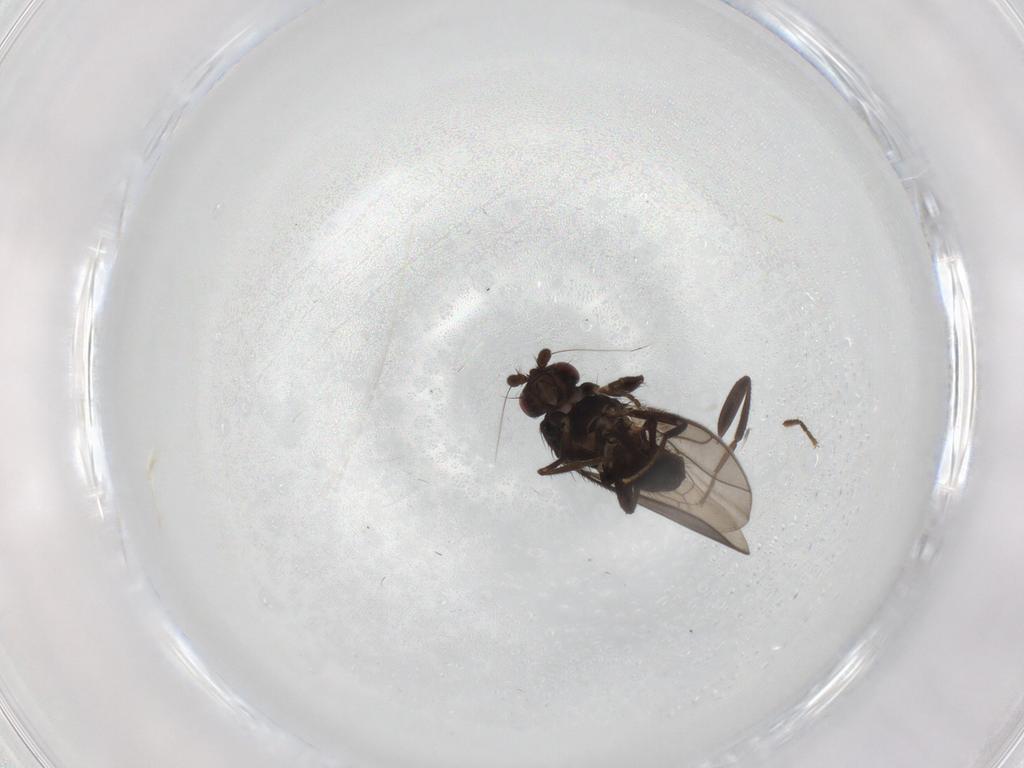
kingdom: Animalia
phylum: Arthropoda
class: Insecta
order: Diptera
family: Sphaeroceridae
